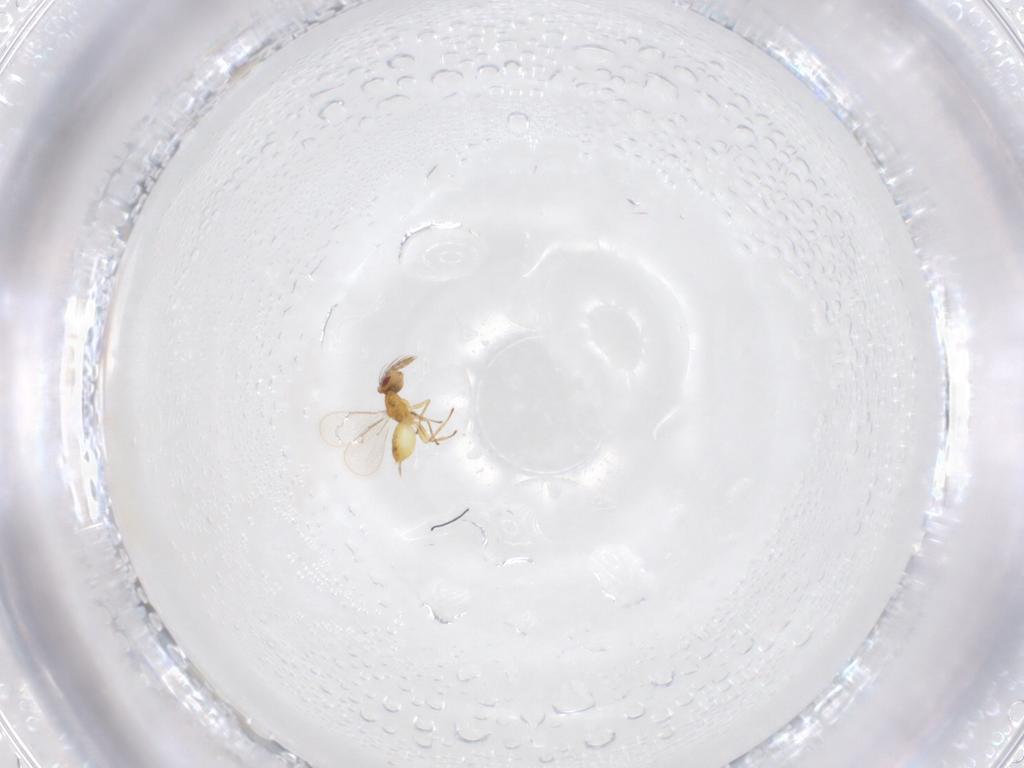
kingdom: Animalia
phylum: Arthropoda
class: Insecta
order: Hymenoptera
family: Eulophidae
